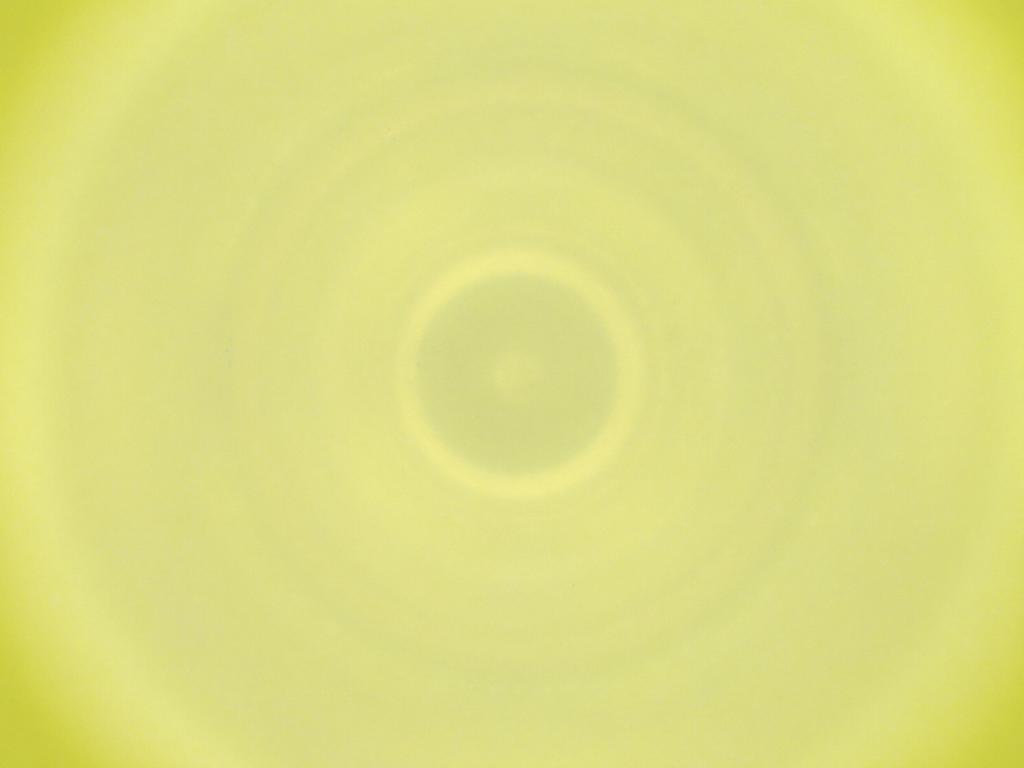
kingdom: Animalia
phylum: Arthropoda
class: Insecta
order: Diptera
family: Cecidomyiidae
